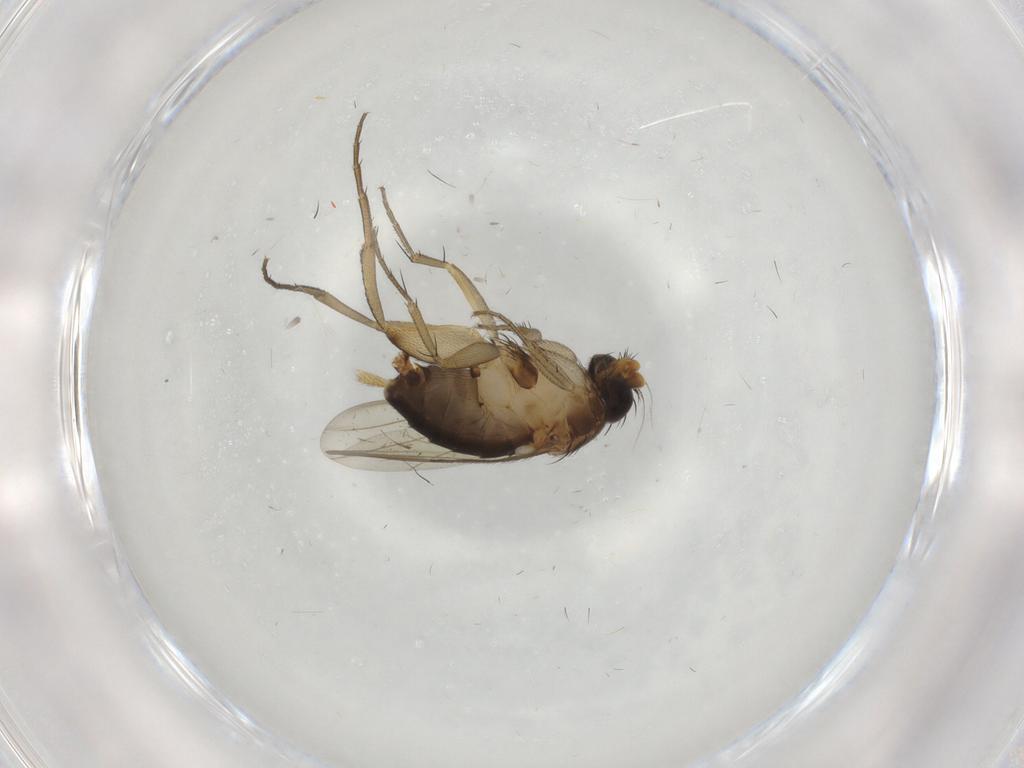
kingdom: Animalia
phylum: Arthropoda
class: Insecta
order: Diptera
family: Phoridae
